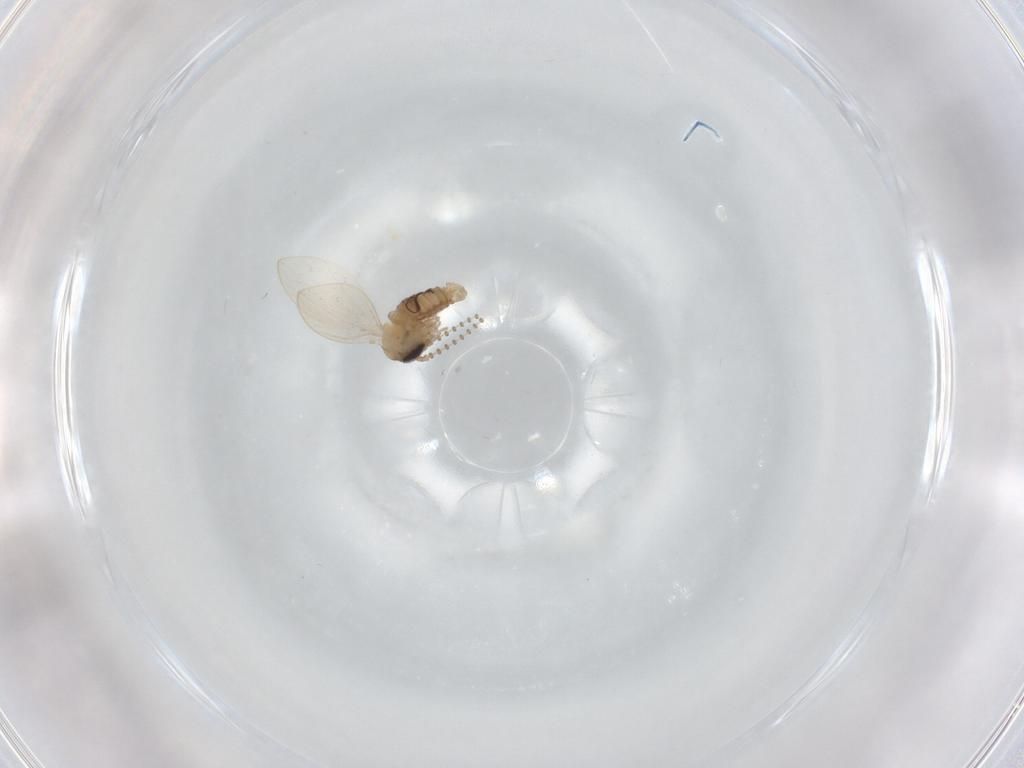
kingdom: Animalia
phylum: Arthropoda
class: Insecta
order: Diptera
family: Psychodidae
